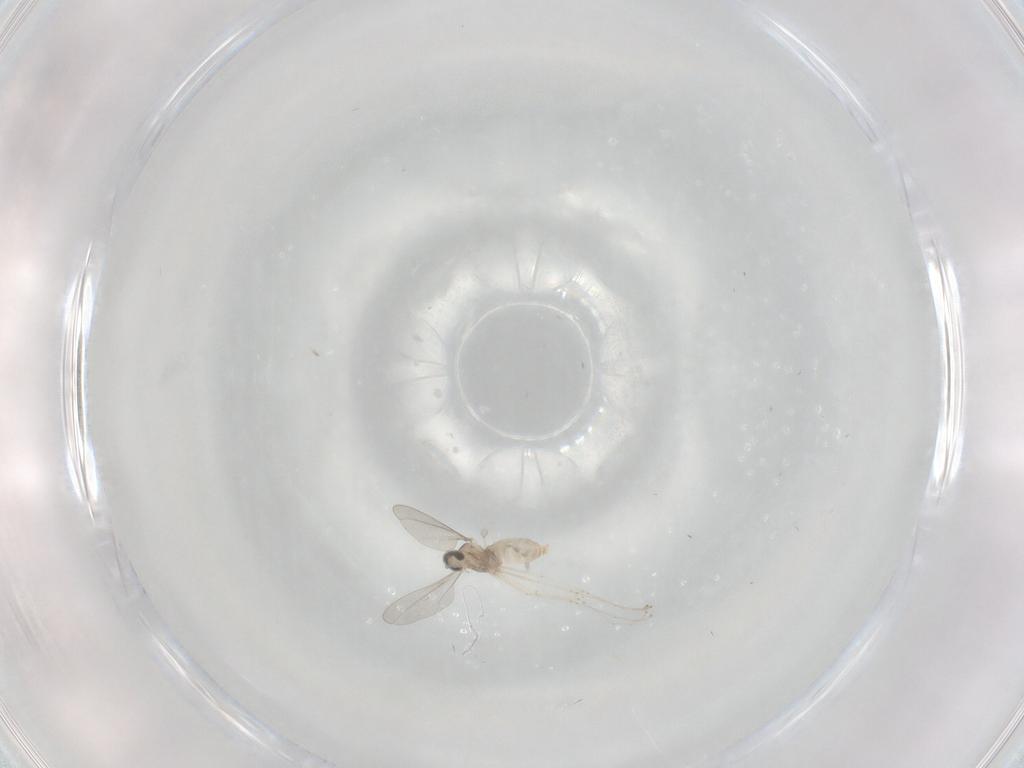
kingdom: Animalia
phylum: Arthropoda
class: Insecta
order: Diptera
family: Cecidomyiidae
